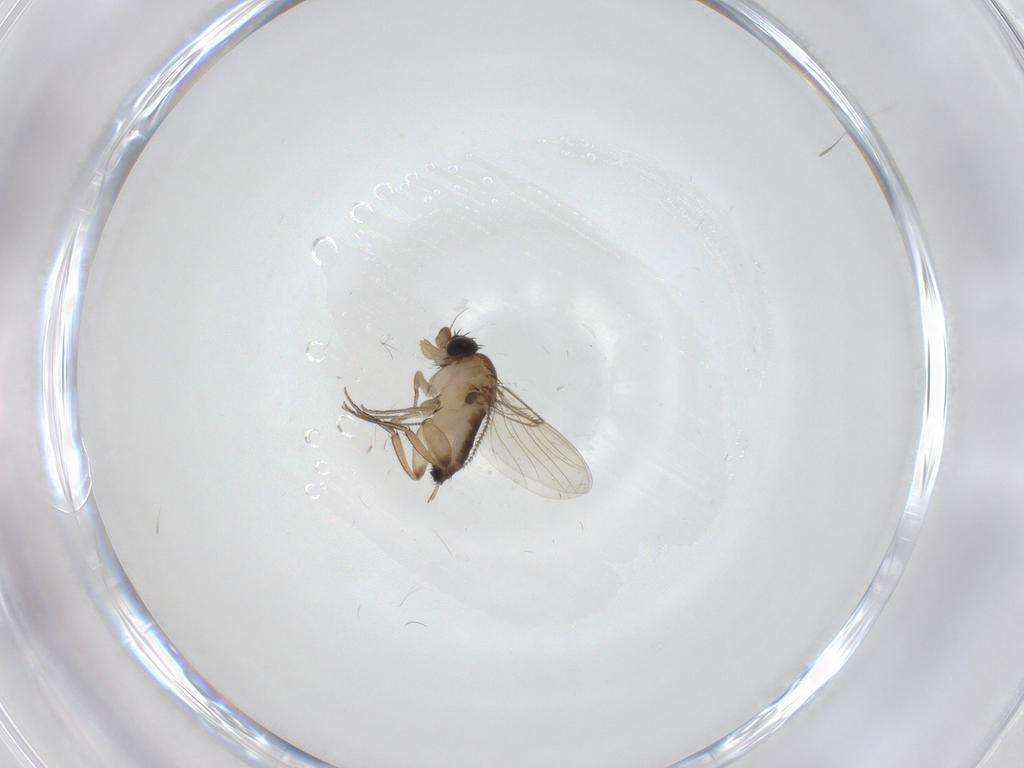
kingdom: Animalia
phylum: Arthropoda
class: Insecta
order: Diptera
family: Phoridae
